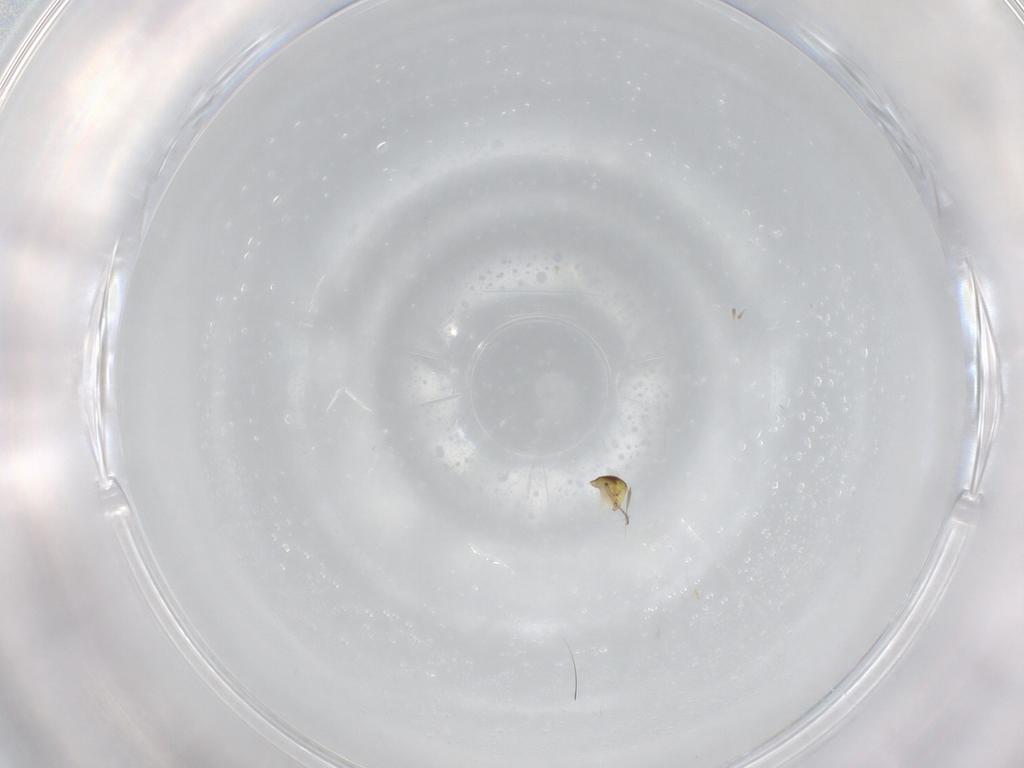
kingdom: Animalia
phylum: Arthropoda
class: Insecta
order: Diptera
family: Ceratopogonidae
